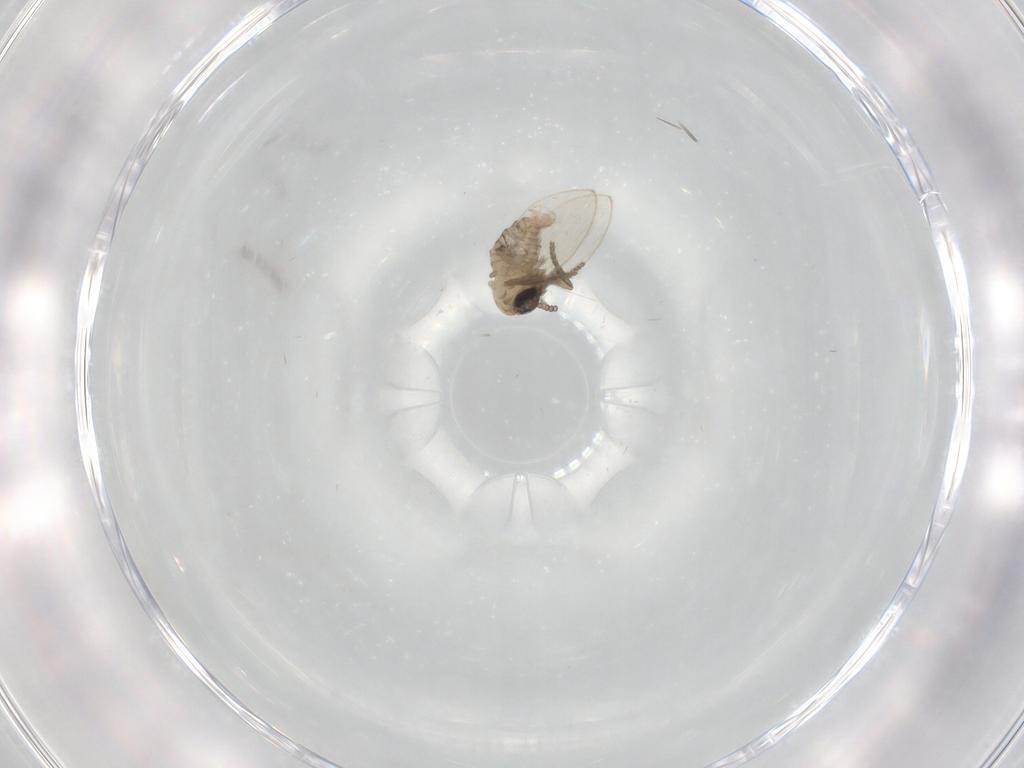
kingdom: Animalia
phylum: Arthropoda
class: Insecta
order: Diptera
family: Psychodidae
